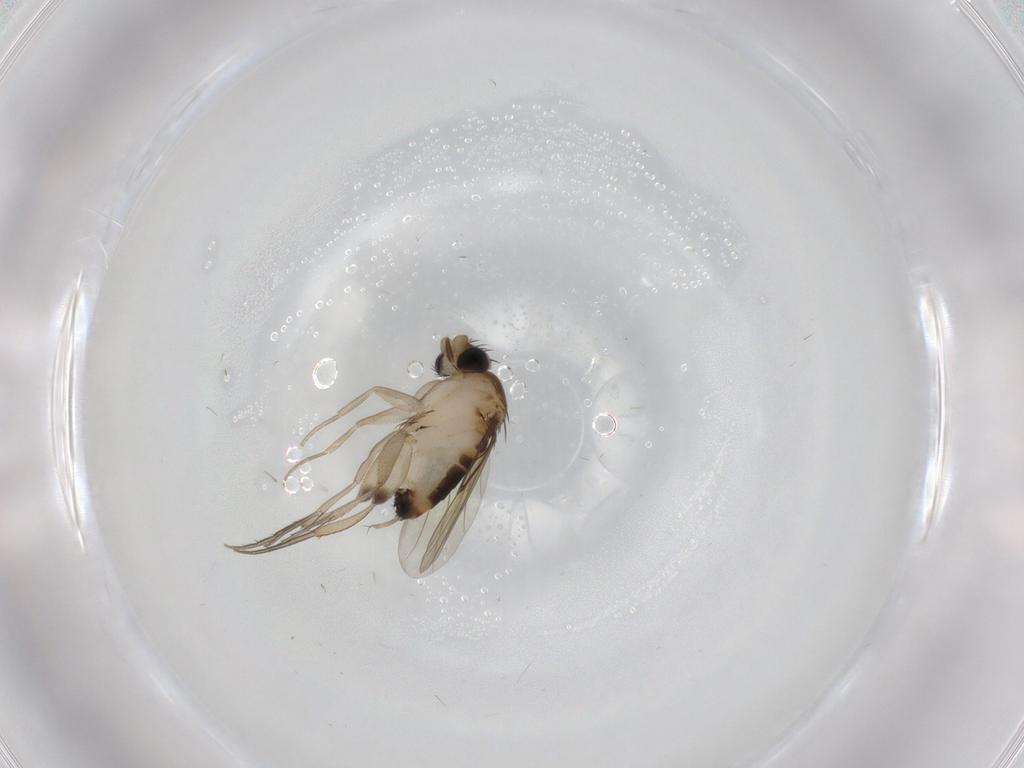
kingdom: Animalia
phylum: Arthropoda
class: Insecta
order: Diptera
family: Phoridae
